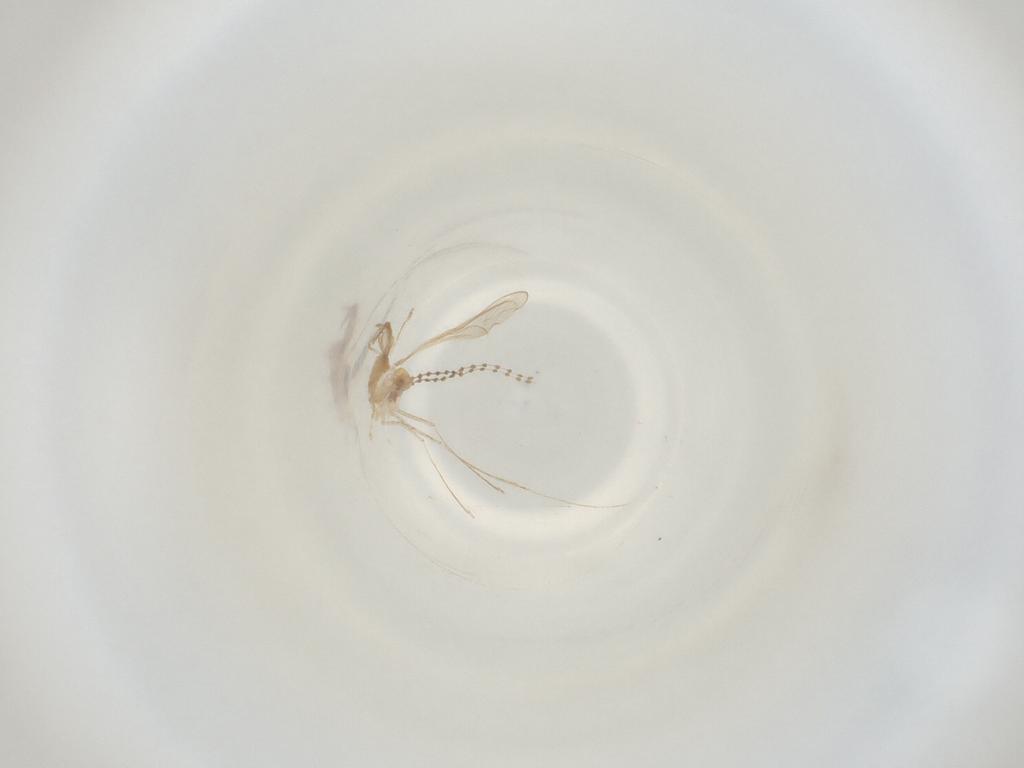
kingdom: Animalia
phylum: Arthropoda
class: Insecta
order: Diptera
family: Cecidomyiidae
